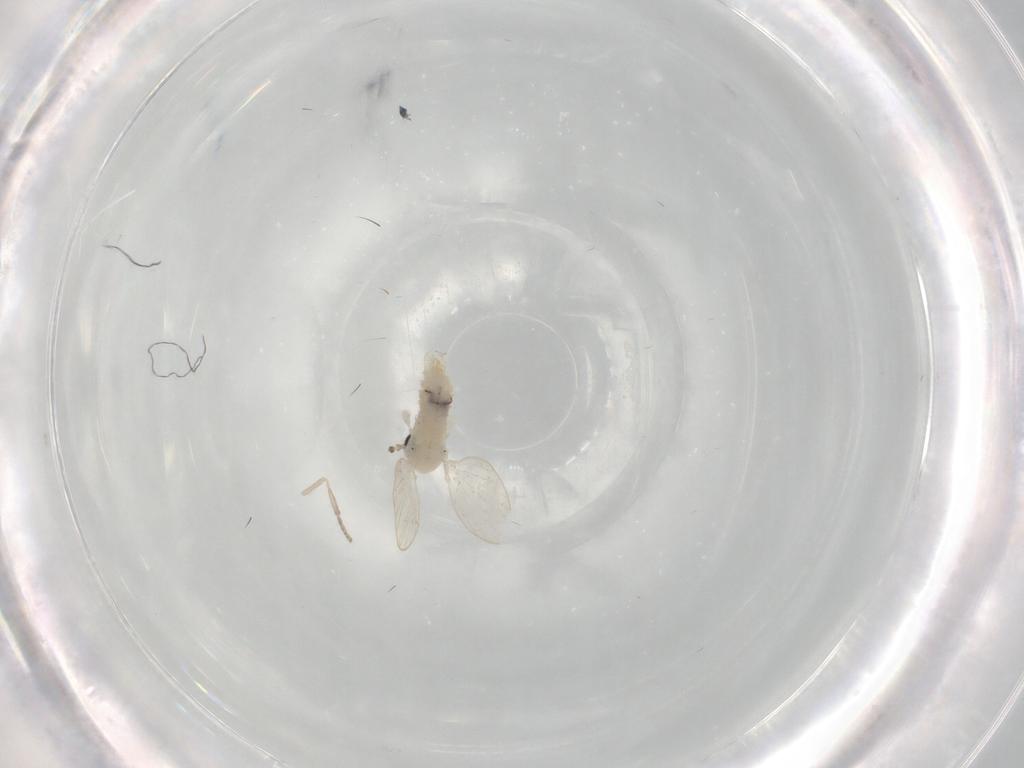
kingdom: Animalia
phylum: Arthropoda
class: Insecta
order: Diptera
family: Psychodidae
